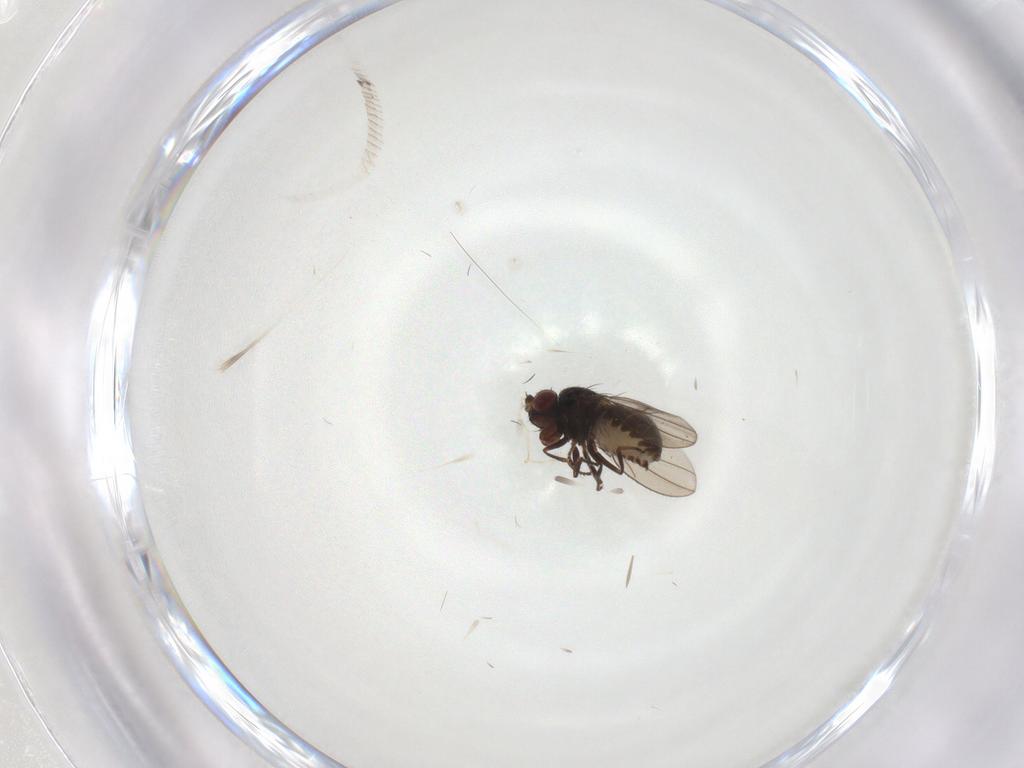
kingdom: Animalia
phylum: Arthropoda
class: Insecta
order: Diptera
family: Ephydridae
